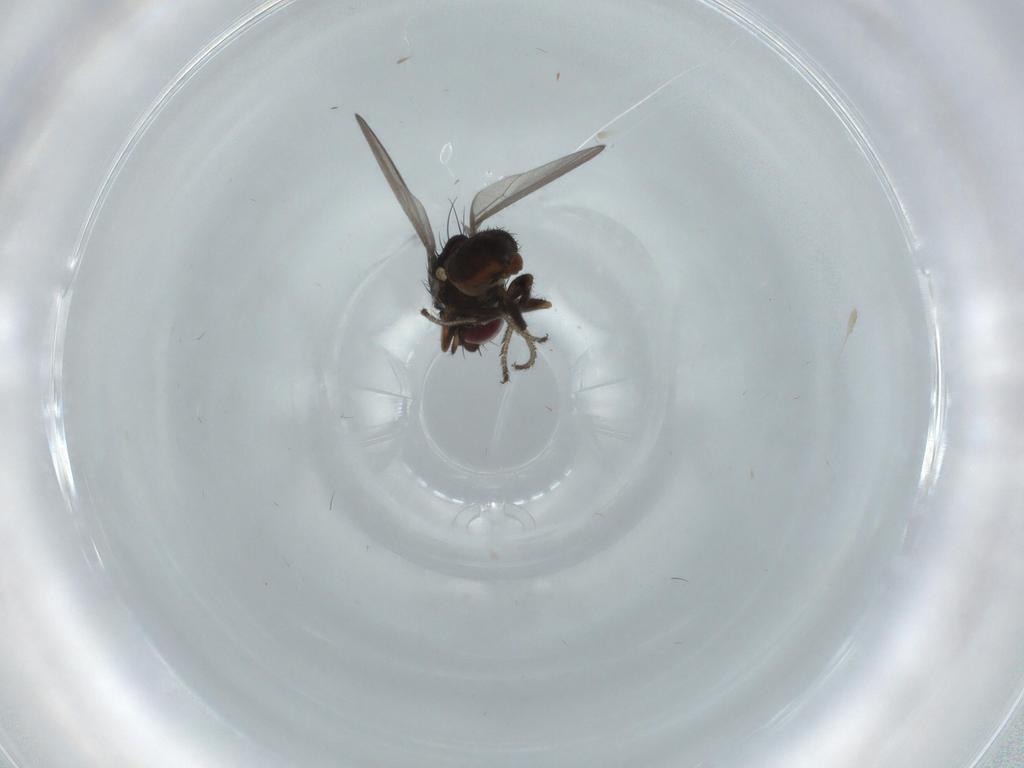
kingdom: Animalia
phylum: Arthropoda
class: Insecta
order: Diptera
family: Milichiidae
